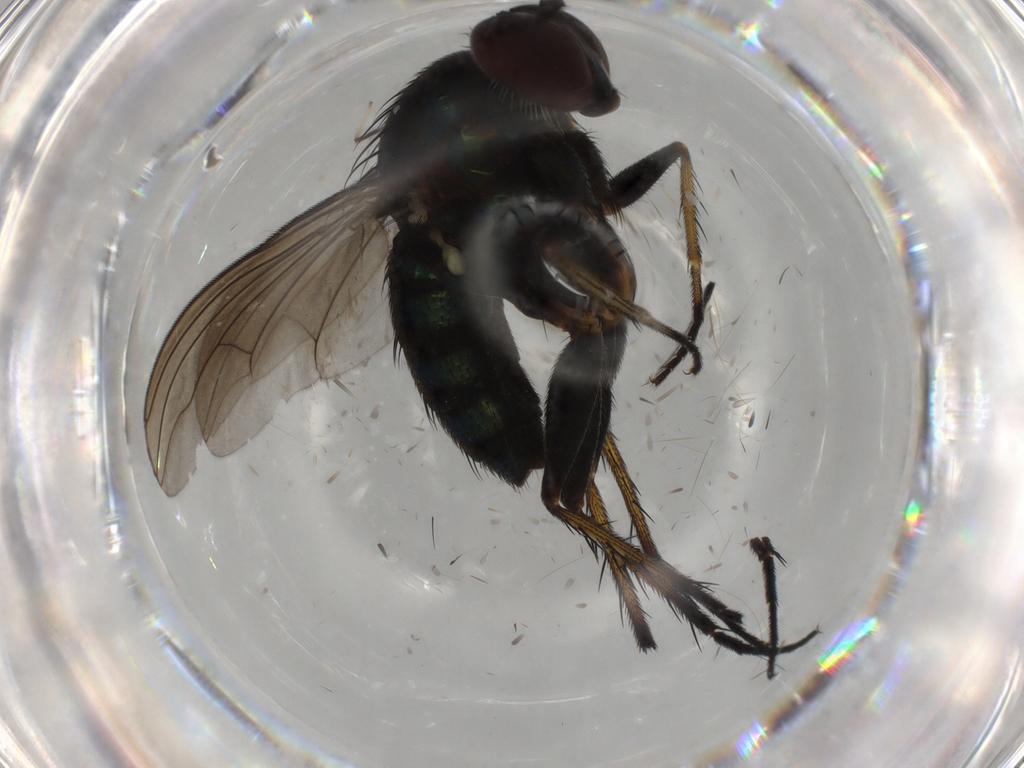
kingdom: Animalia
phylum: Arthropoda
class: Insecta
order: Diptera
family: Dolichopodidae
